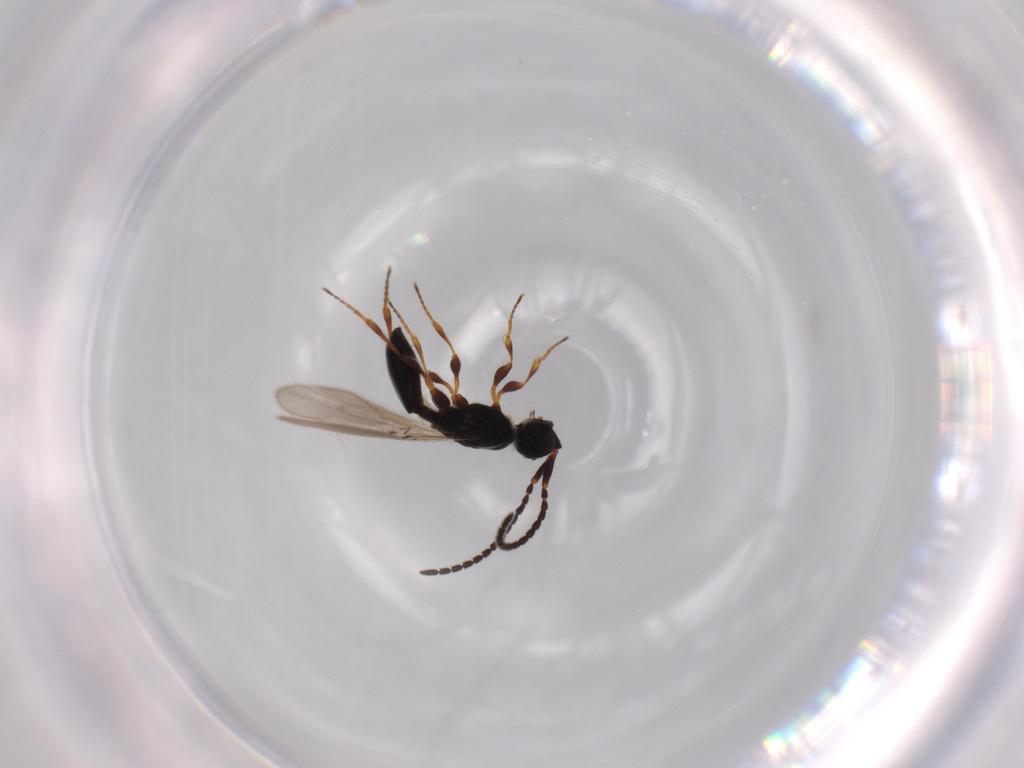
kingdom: Animalia
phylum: Arthropoda
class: Insecta
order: Hymenoptera
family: Diapriidae
